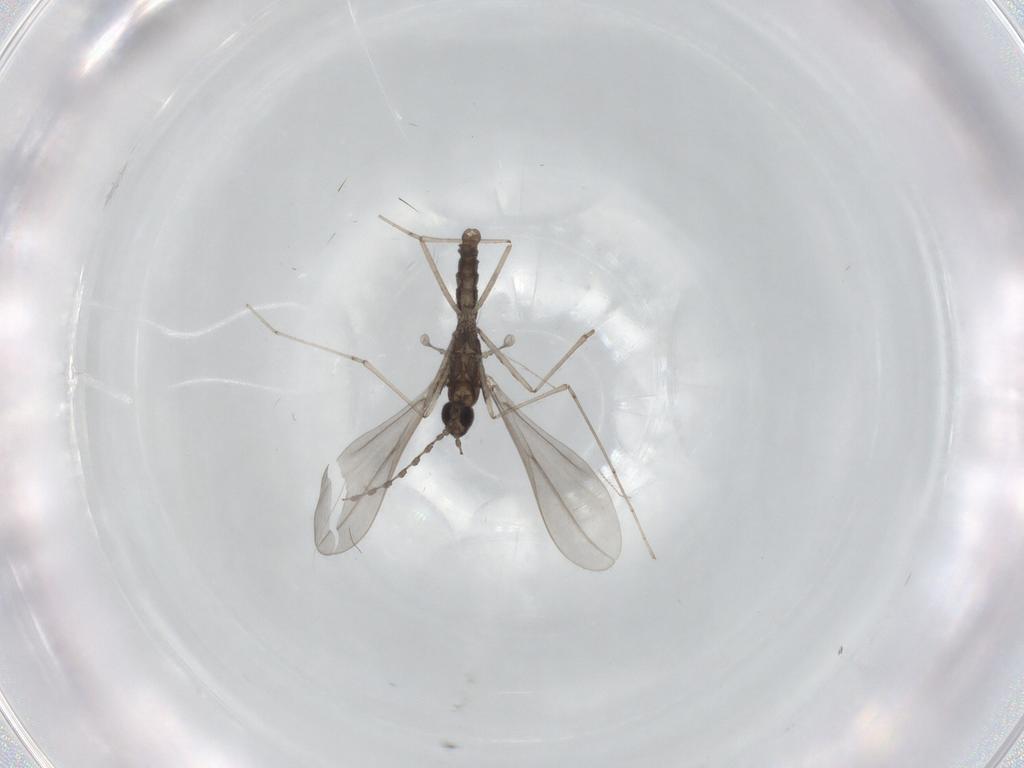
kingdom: Animalia
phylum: Arthropoda
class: Insecta
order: Diptera
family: Cecidomyiidae
